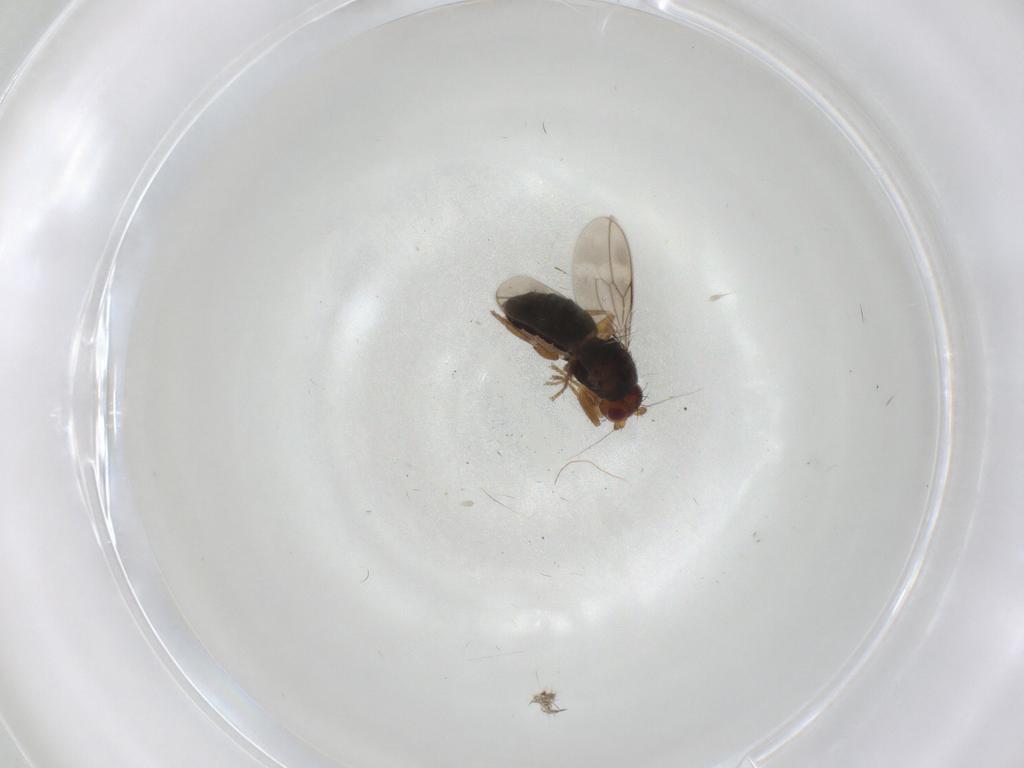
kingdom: Animalia
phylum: Arthropoda
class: Insecta
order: Diptera
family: Sphaeroceridae
